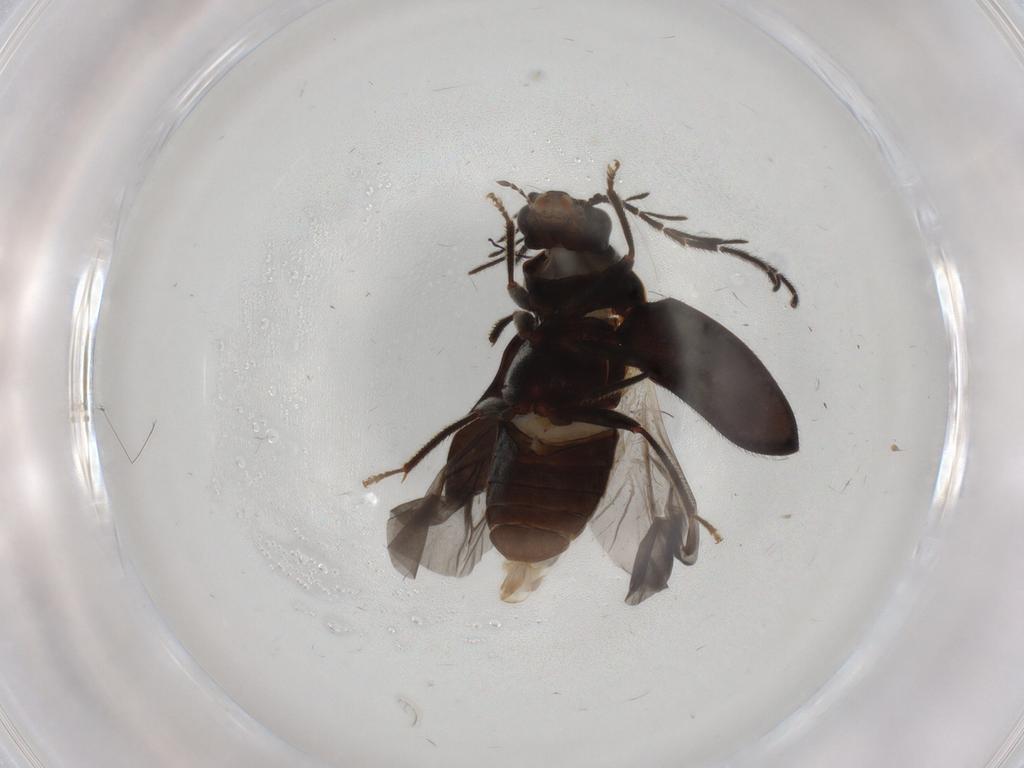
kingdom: Animalia
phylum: Arthropoda
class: Insecta
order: Coleoptera
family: Ptilodactylidae
